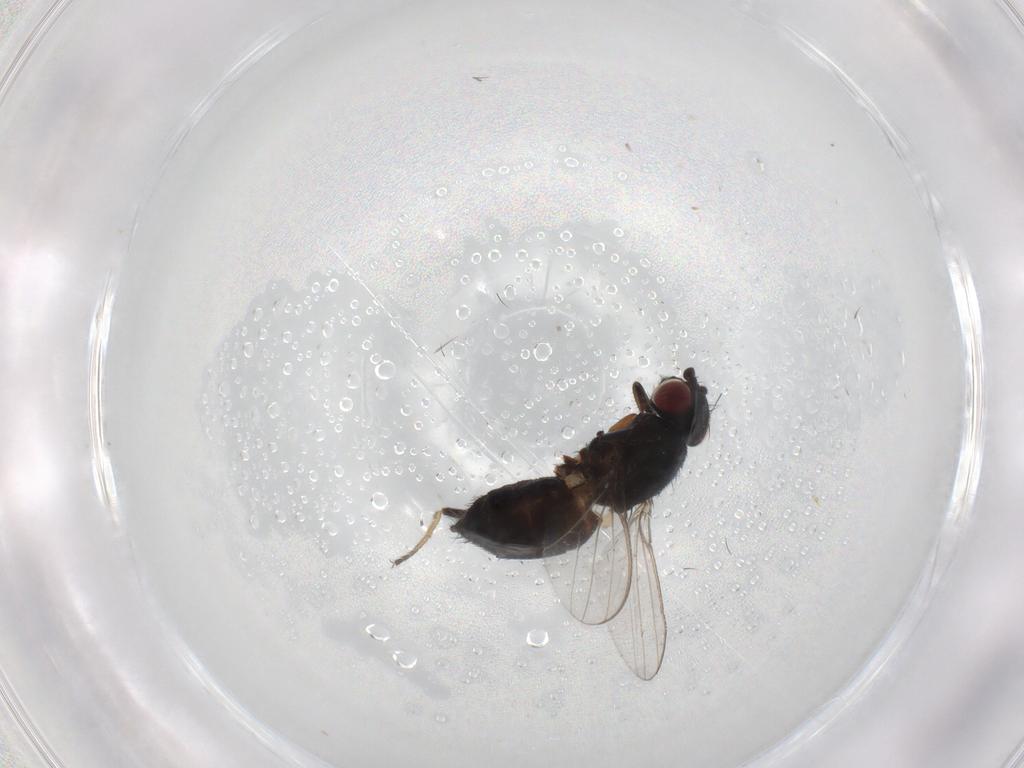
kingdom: Animalia
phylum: Arthropoda
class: Insecta
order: Diptera
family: Milichiidae
